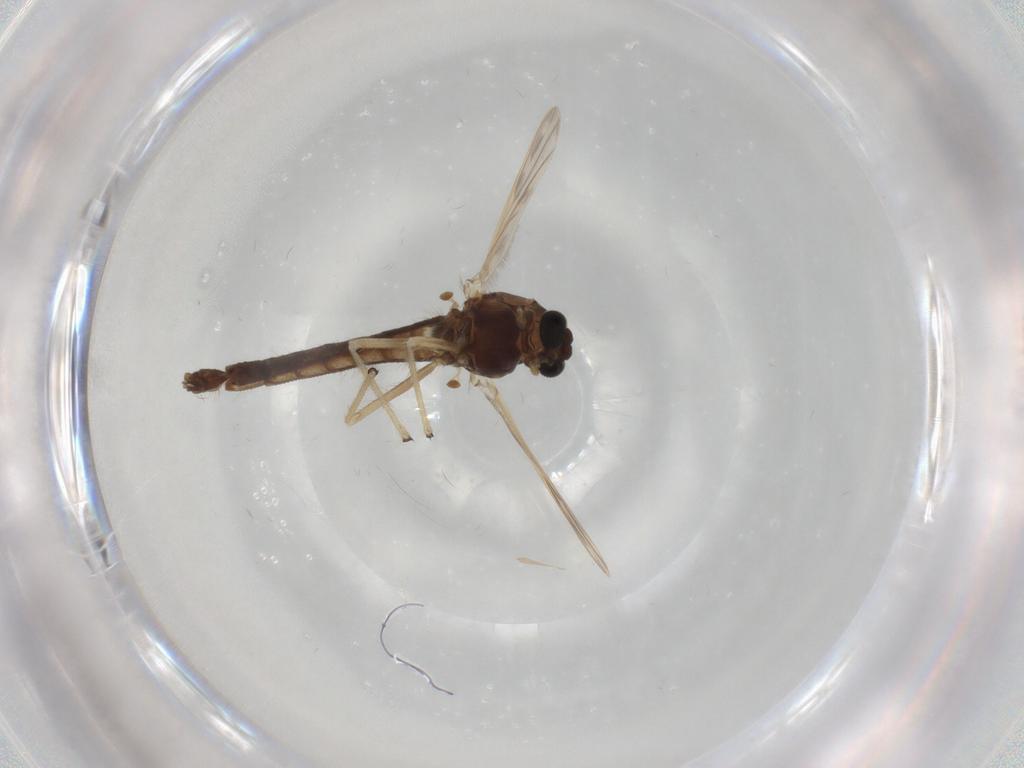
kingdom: Animalia
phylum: Arthropoda
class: Insecta
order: Diptera
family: Chironomidae
